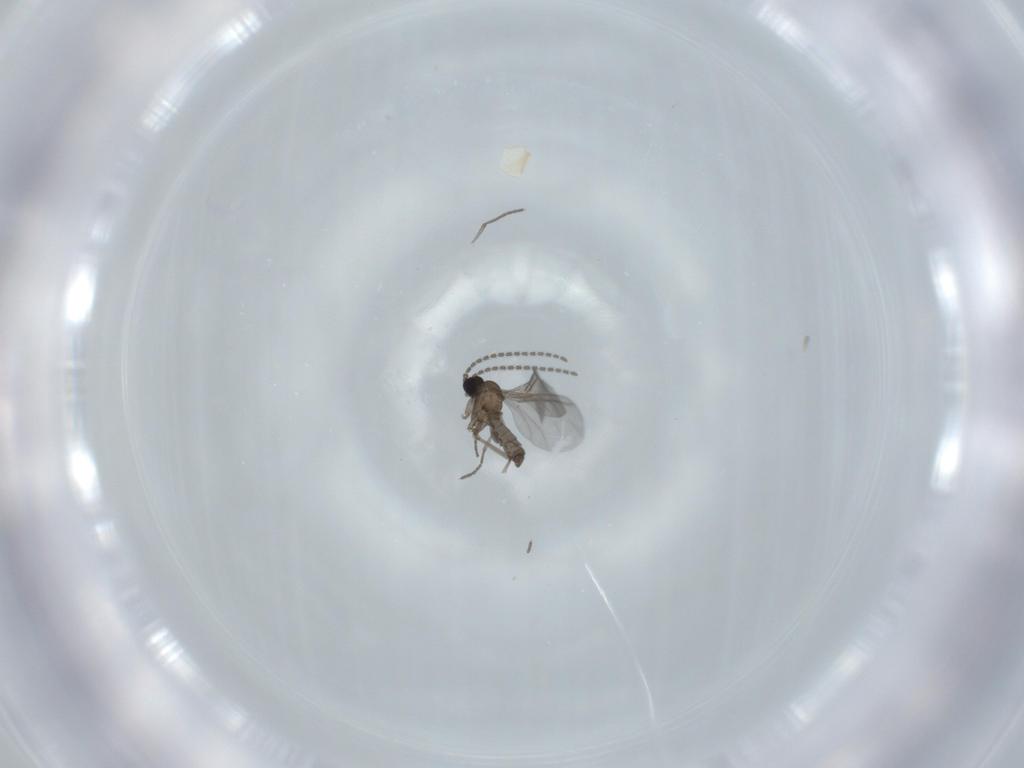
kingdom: Animalia
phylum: Arthropoda
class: Insecta
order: Diptera
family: Sciaridae
